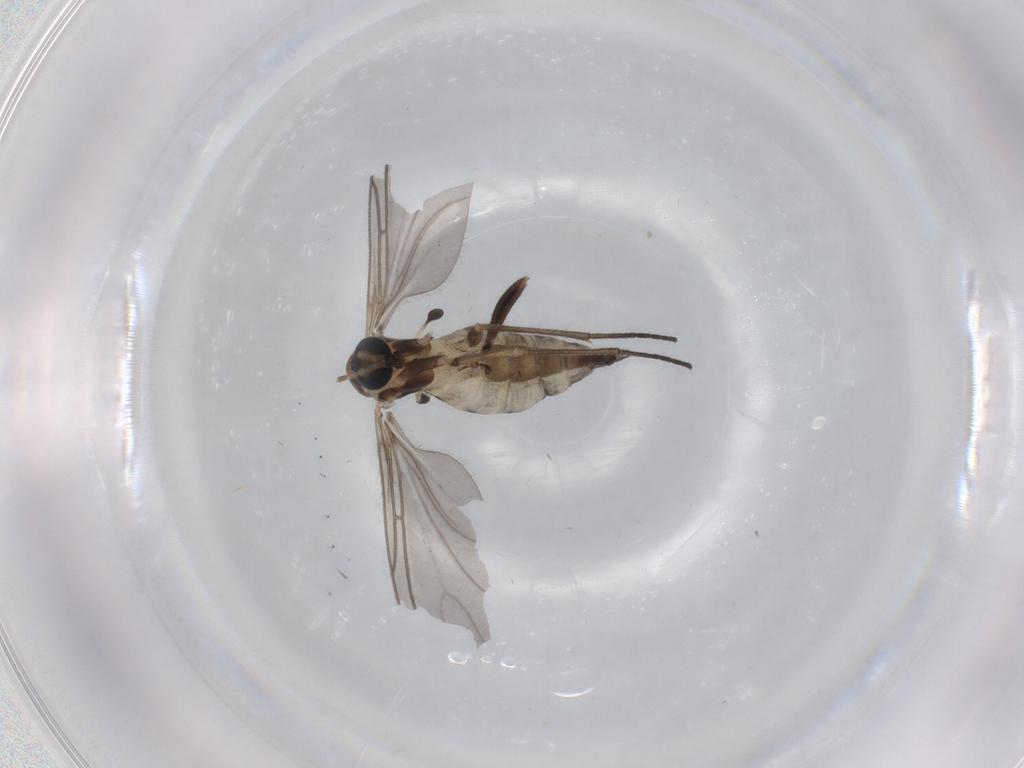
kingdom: Animalia
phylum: Arthropoda
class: Insecta
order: Diptera
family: Sciaridae
